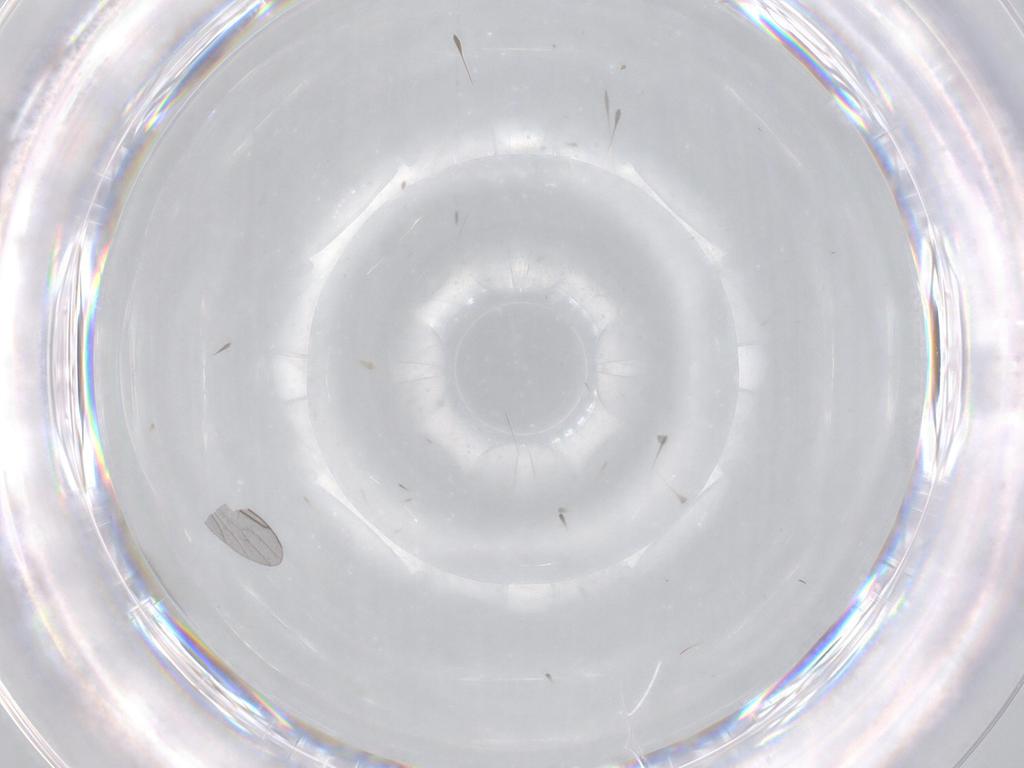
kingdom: Animalia
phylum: Arthropoda
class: Insecta
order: Diptera
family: Sciaridae
